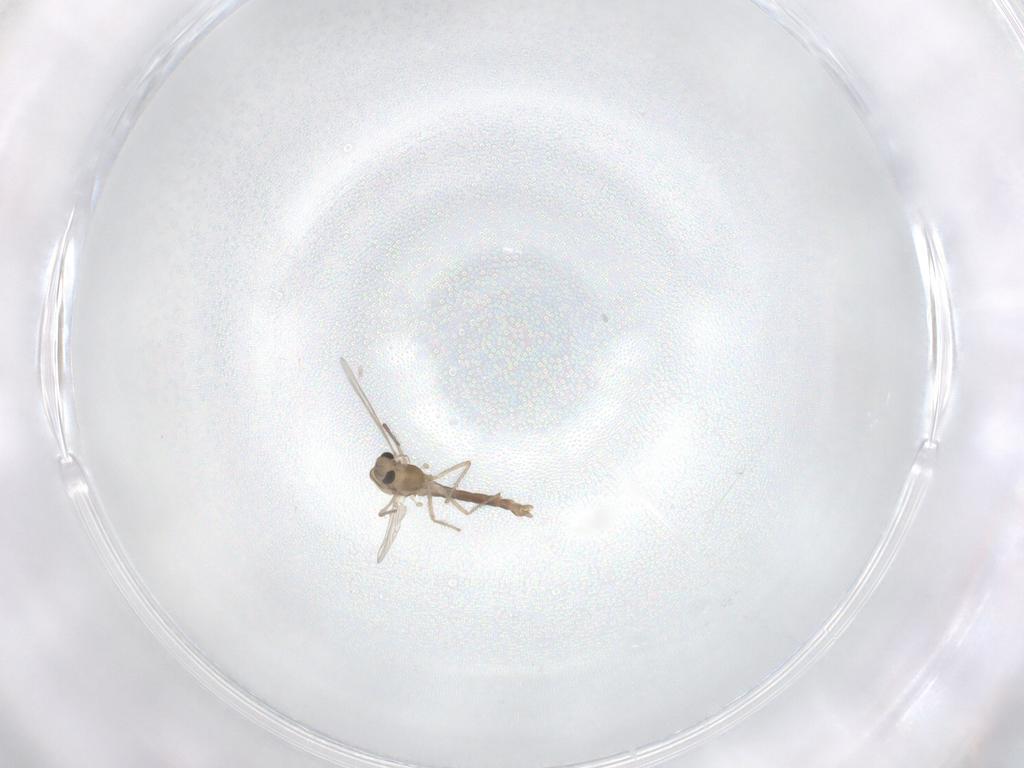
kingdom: Animalia
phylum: Arthropoda
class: Insecta
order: Diptera
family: Chironomidae
